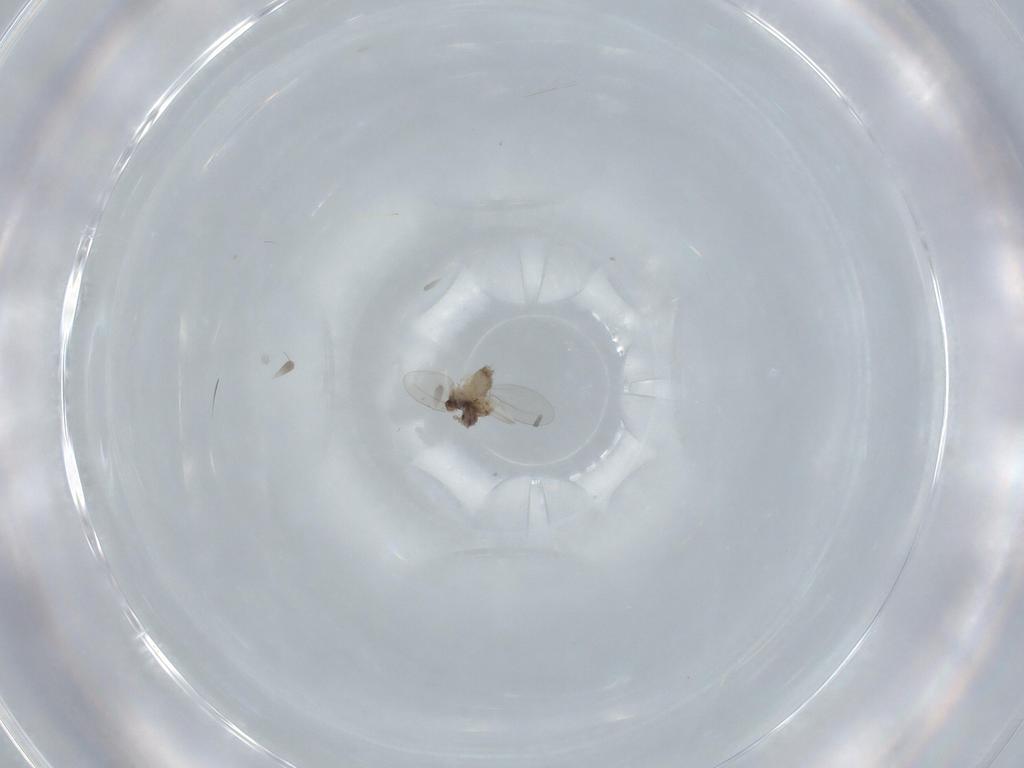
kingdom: Animalia
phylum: Arthropoda
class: Insecta
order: Diptera
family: Cecidomyiidae
